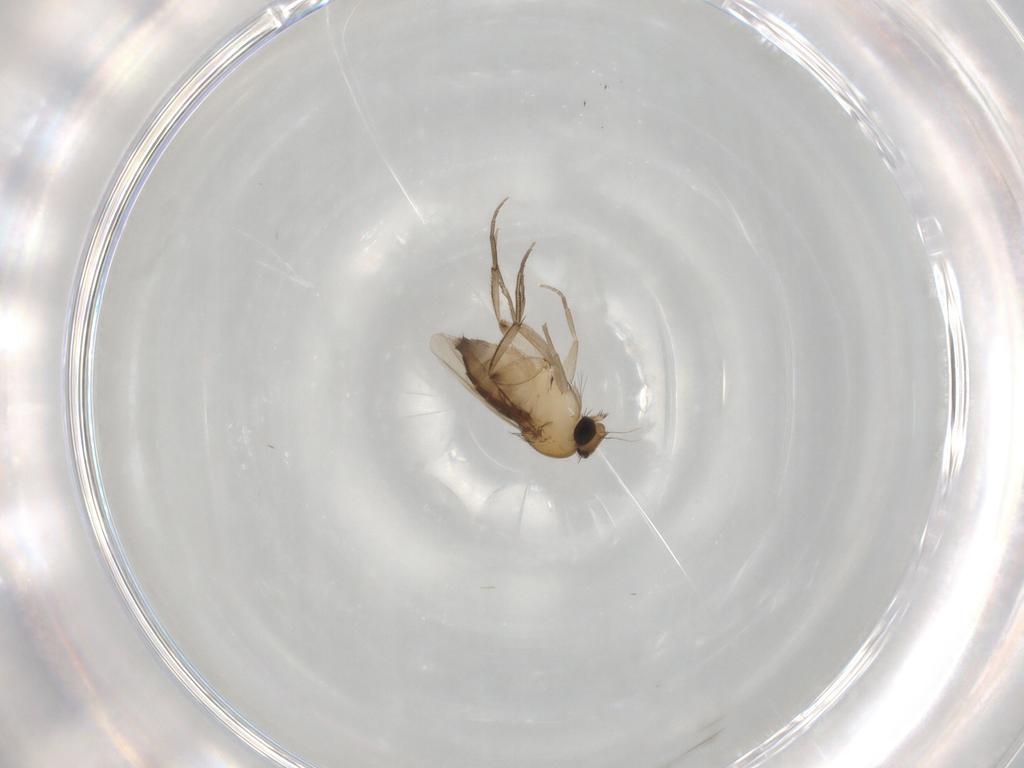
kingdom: Animalia
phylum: Arthropoda
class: Insecta
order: Diptera
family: Phoridae
